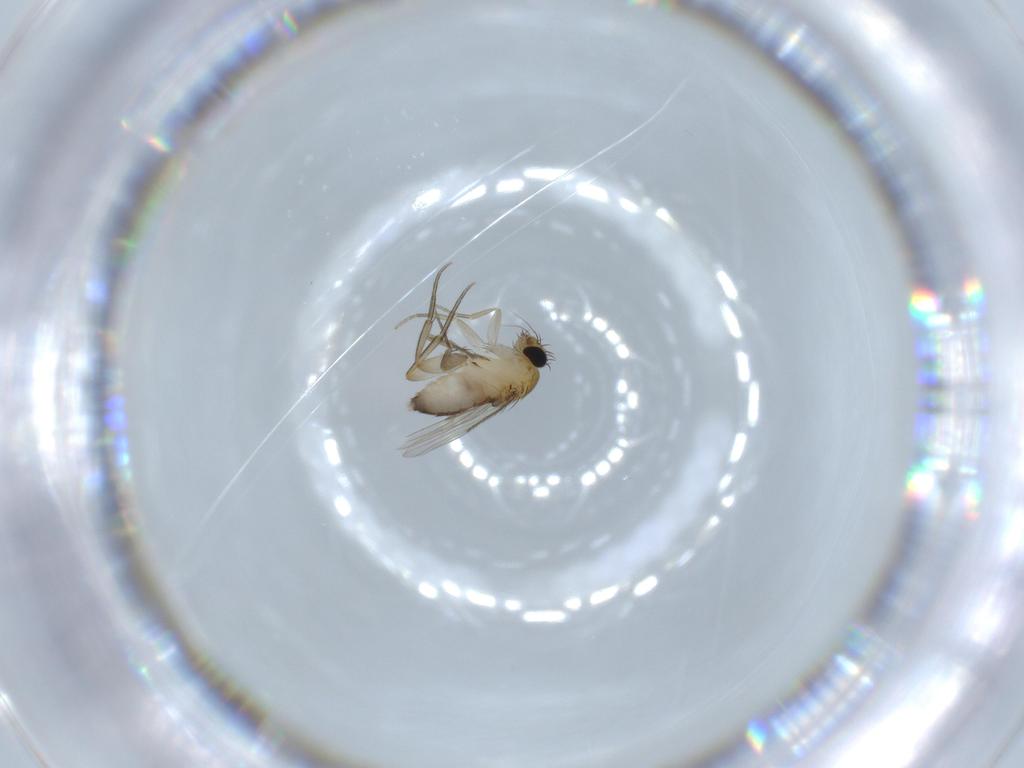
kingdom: Animalia
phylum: Arthropoda
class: Insecta
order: Diptera
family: Phoridae
